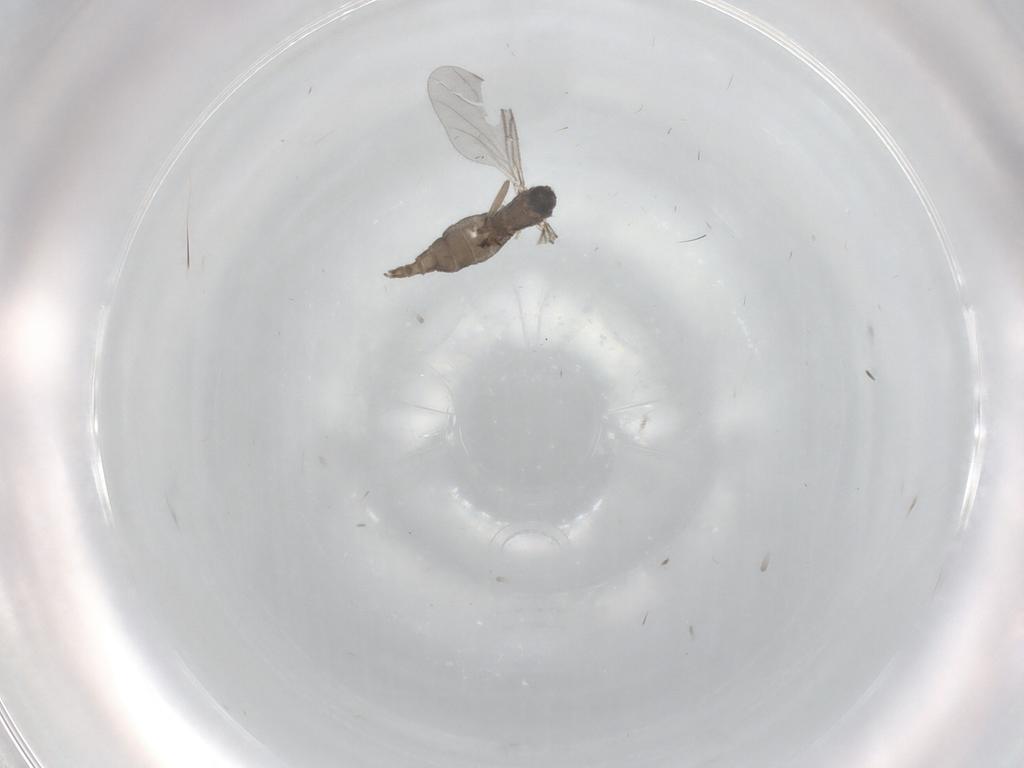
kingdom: Animalia
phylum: Arthropoda
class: Insecta
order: Diptera
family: Sciaridae
